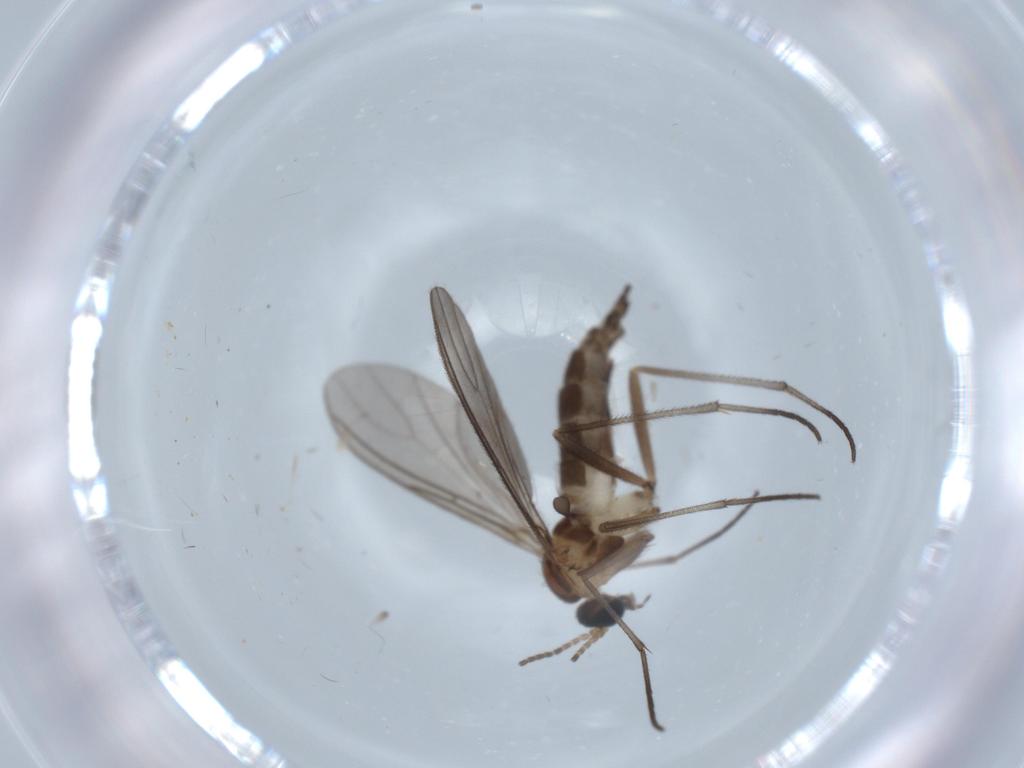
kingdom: Animalia
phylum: Arthropoda
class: Insecta
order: Diptera
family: Sciaridae
